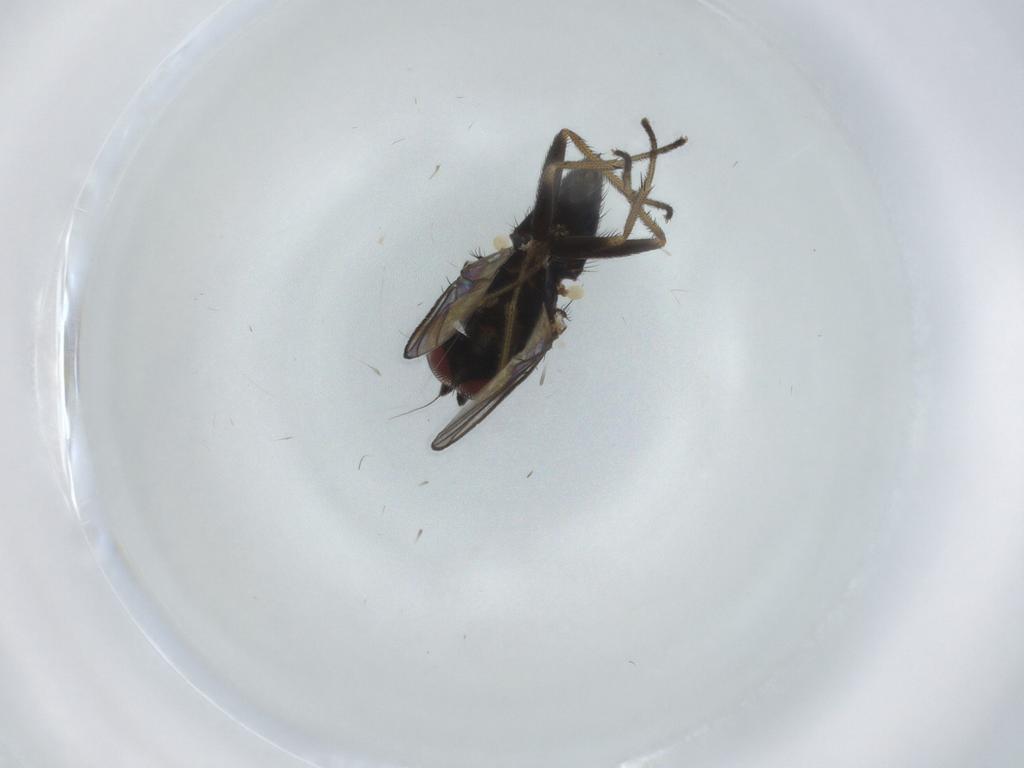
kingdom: Animalia
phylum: Arthropoda
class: Insecta
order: Diptera
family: Dolichopodidae
